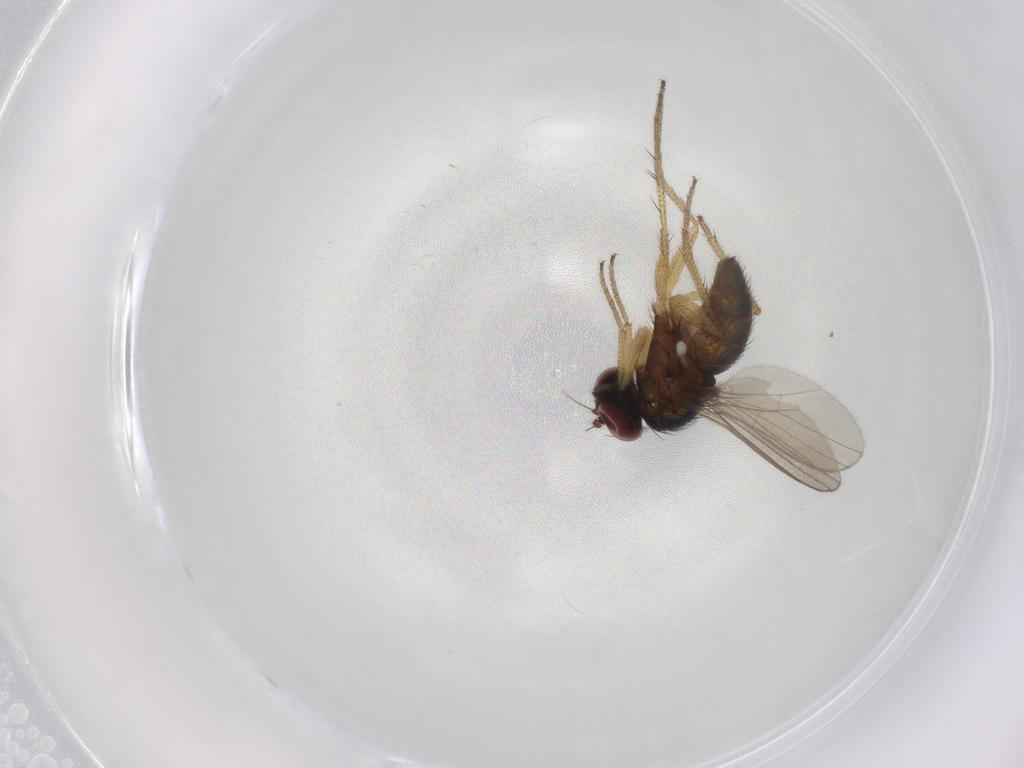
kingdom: Animalia
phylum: Arthropoda
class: Insecta
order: Diptera
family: Dolichopodidae
